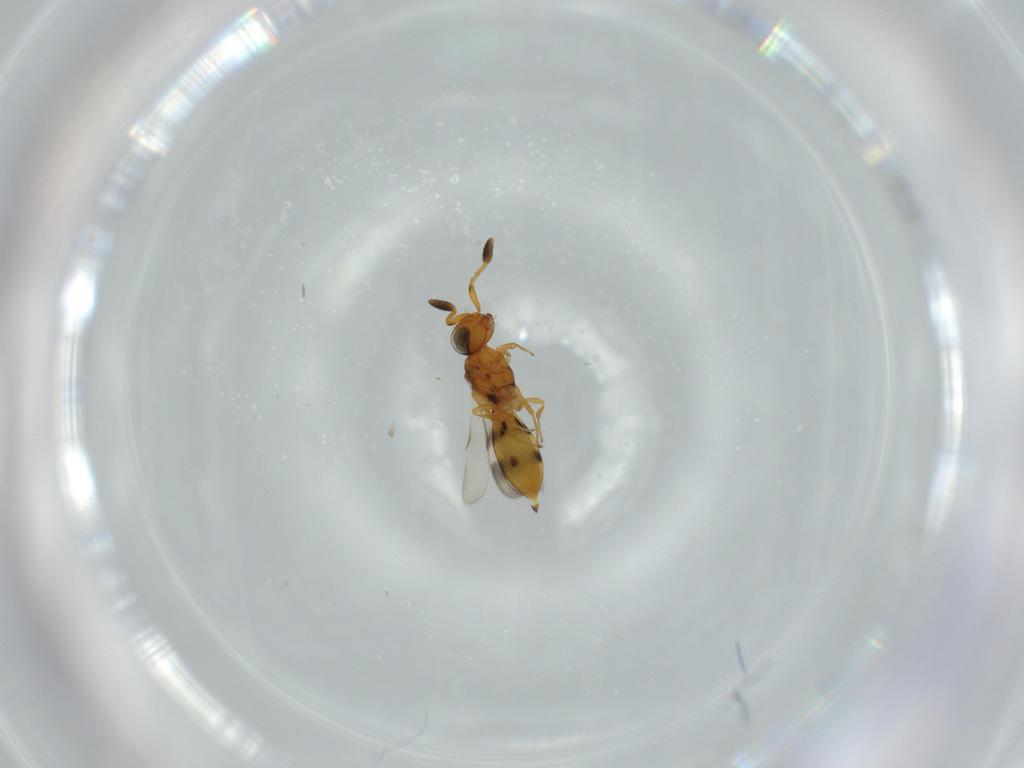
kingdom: Animalia
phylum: Arthropoda
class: Insecta
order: Hymenoptera
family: Scelionidae
